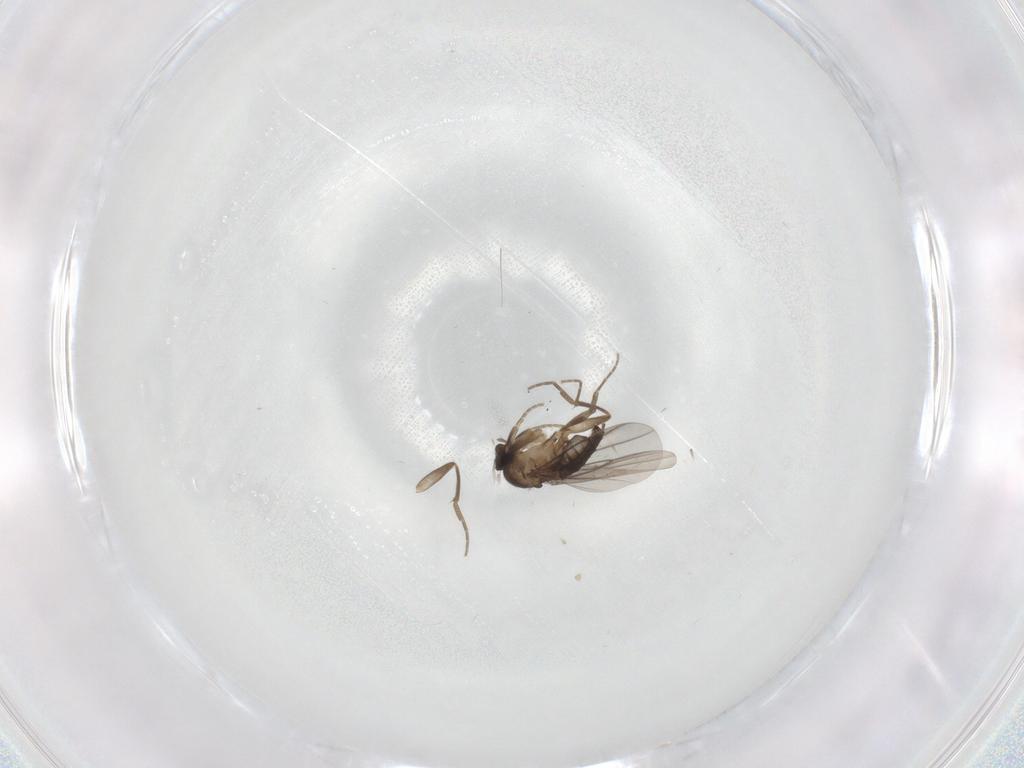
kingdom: Animalia
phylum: Arthropoda
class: Insecta
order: Diptera
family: Phoridae
